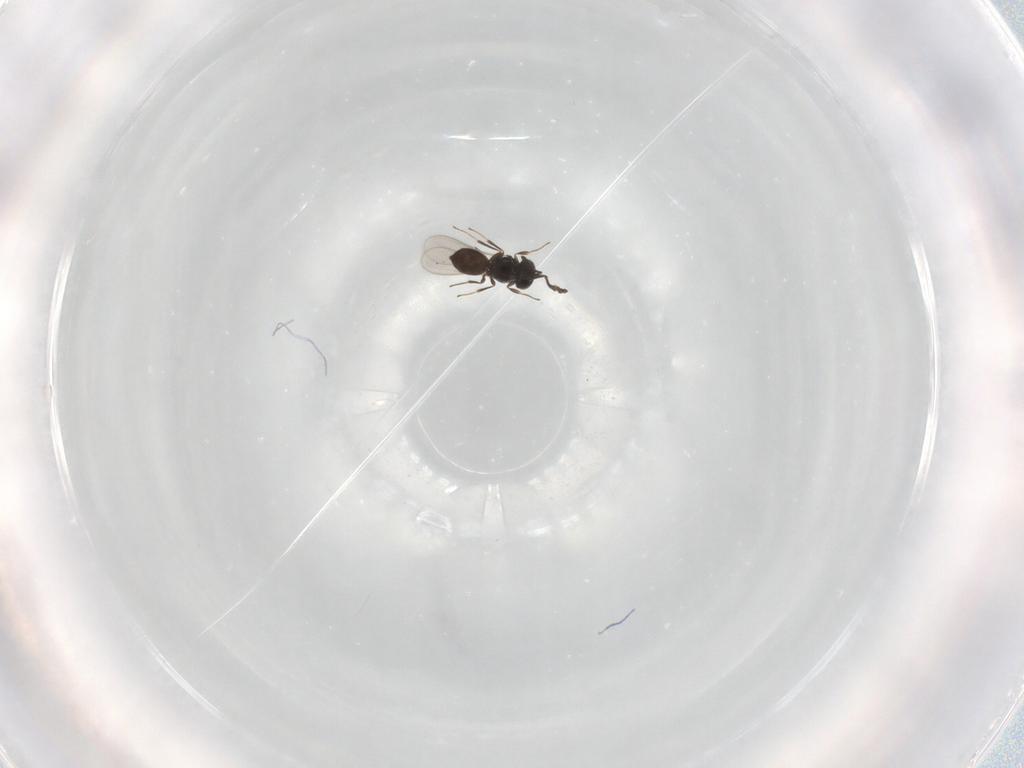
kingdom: Animalia
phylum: Arthropoda
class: Insecta
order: Hymenoptera
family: Scelionidae
